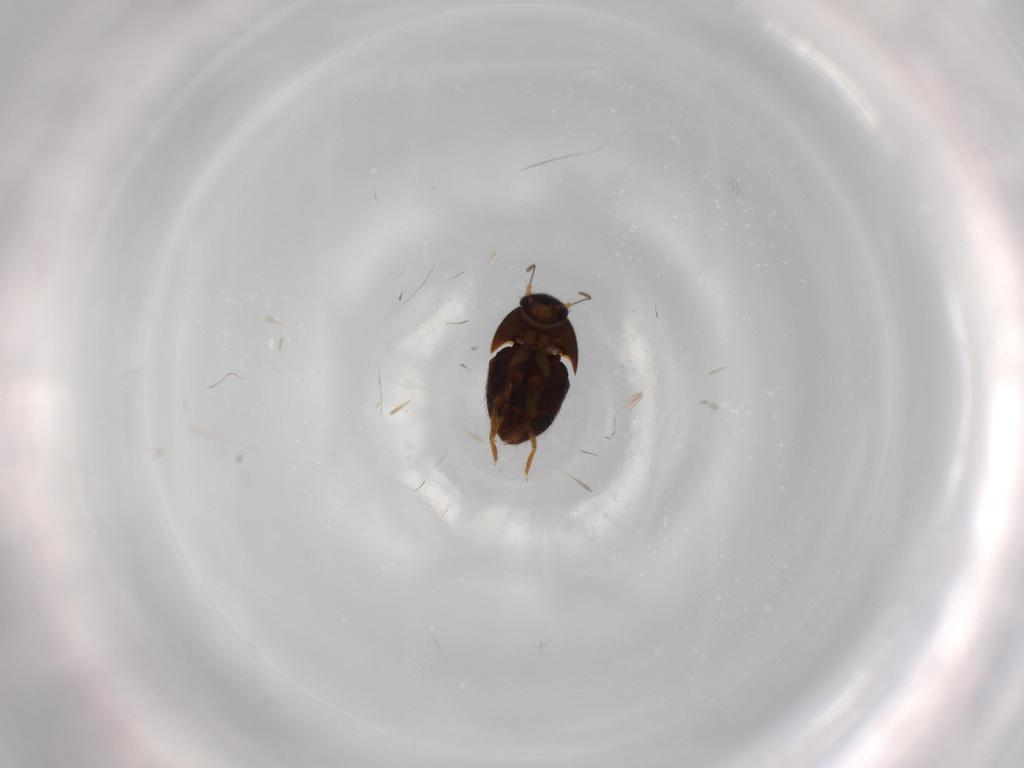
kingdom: Animalia
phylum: Arthropoda
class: Insecta
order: Coleoptera
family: Ptiliidae
